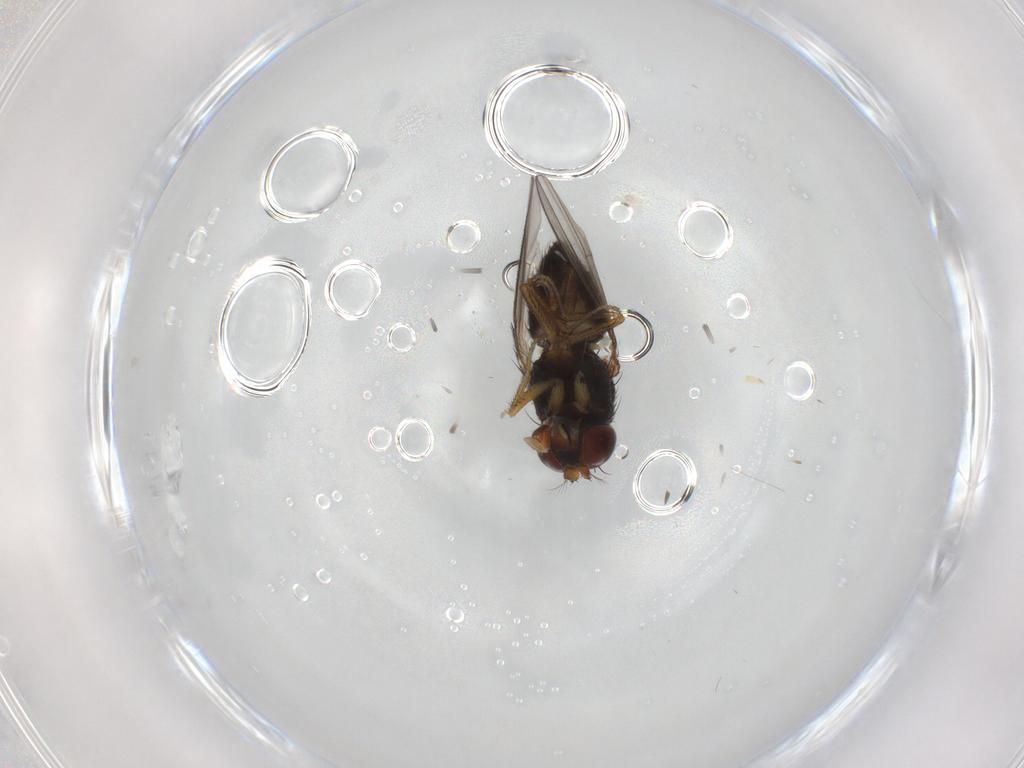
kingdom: Animalia
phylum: Arthropoda
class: Insecta
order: Diptera
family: Ephydridae
